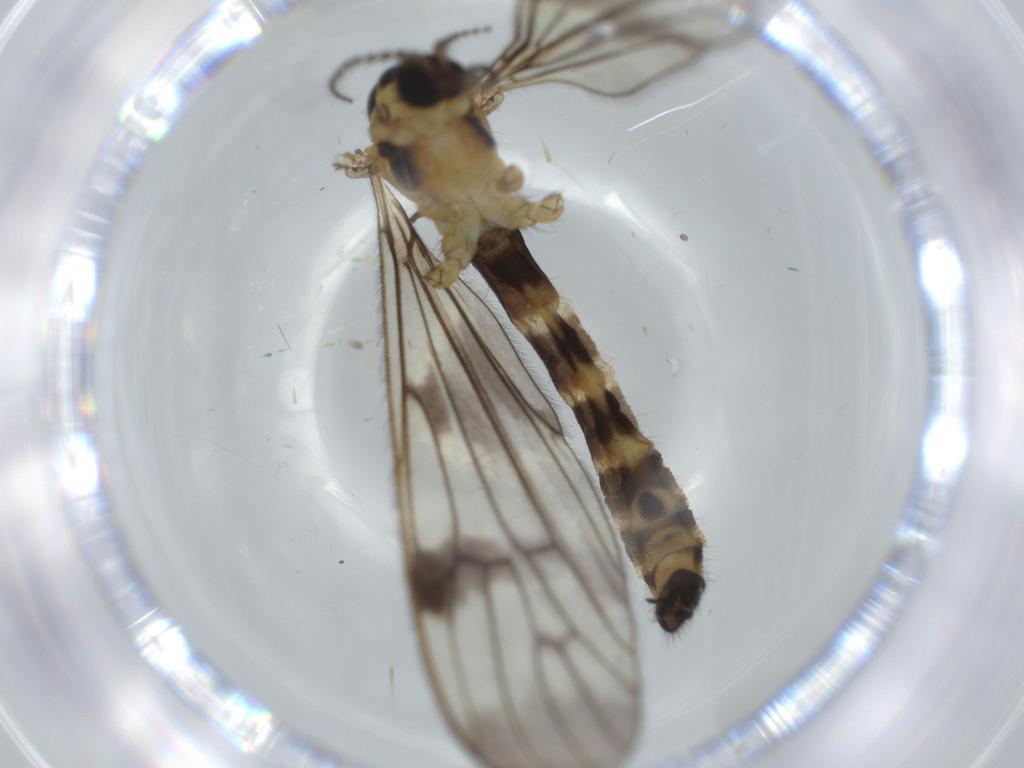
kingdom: Animalia
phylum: Arthropoda
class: Insecta
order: Diptera
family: Limoniidae
